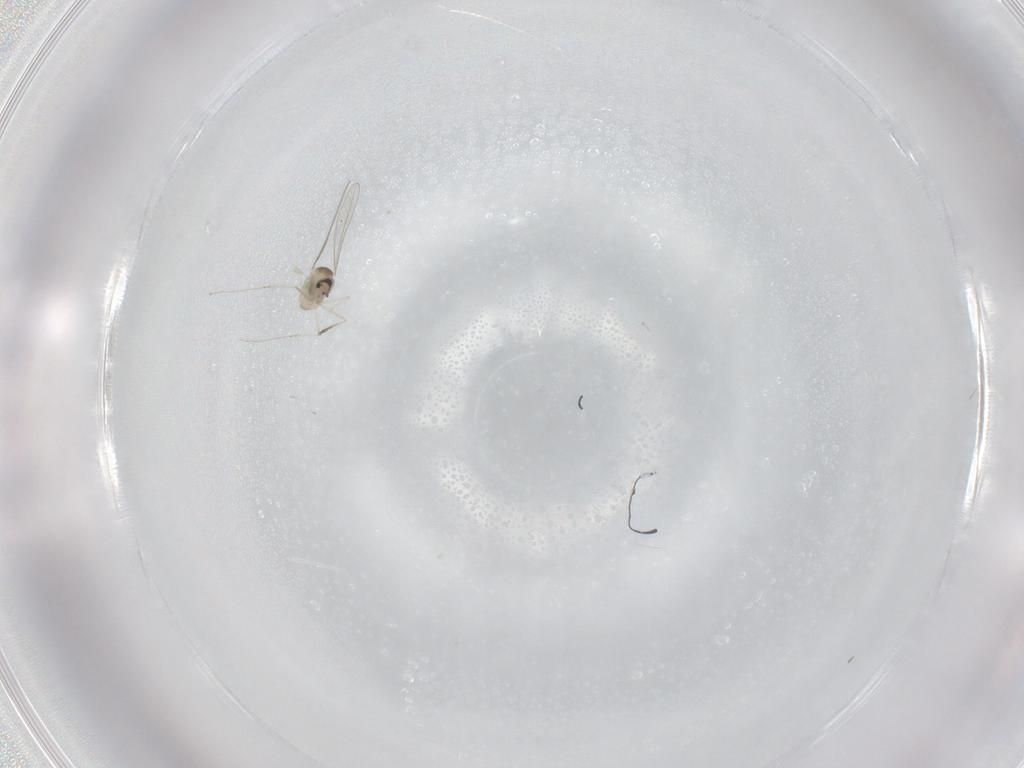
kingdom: Animalia
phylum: Arthropoda
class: Insecta
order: Diptera
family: Cecidomyiidae
